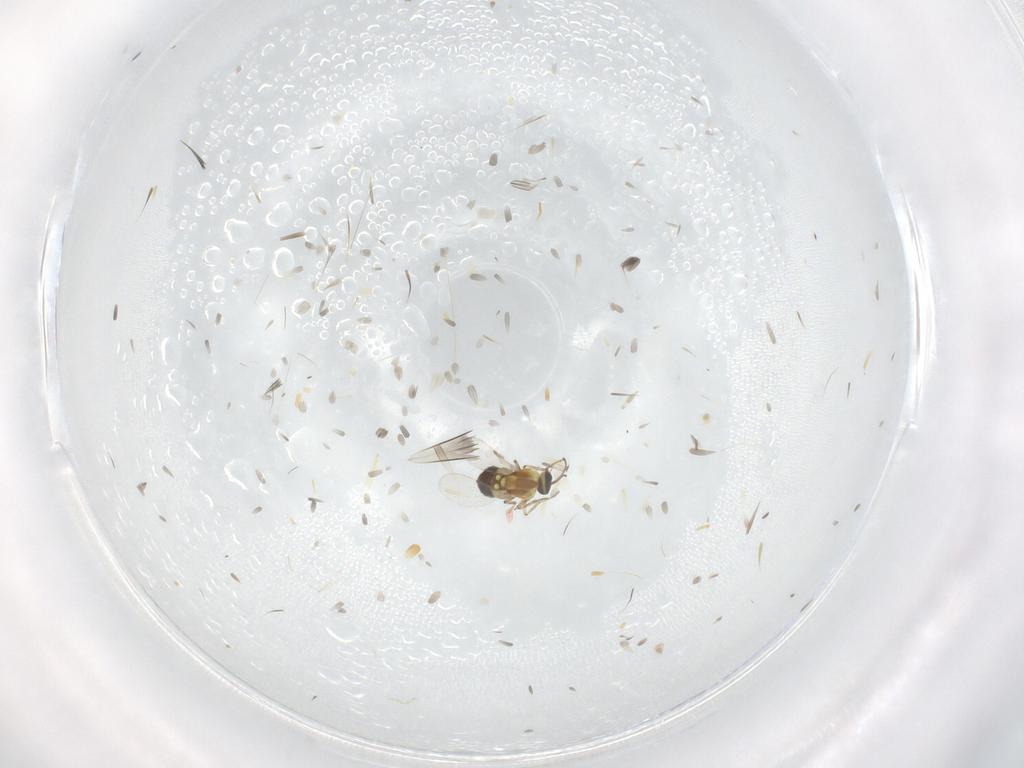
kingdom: Animalia
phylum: Arthropoda
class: Insecta
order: Diptera
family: Ceratopogonidae
